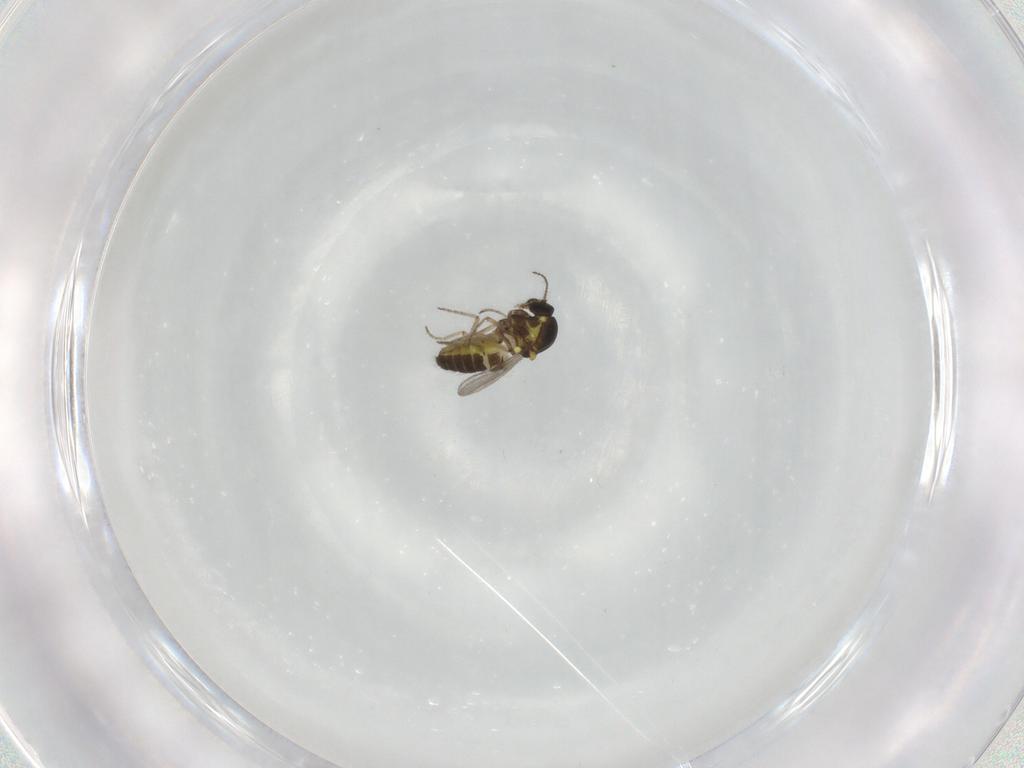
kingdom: Animalia
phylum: Arthropoda
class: Insecta
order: Diptera
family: Ceratopogonidae
